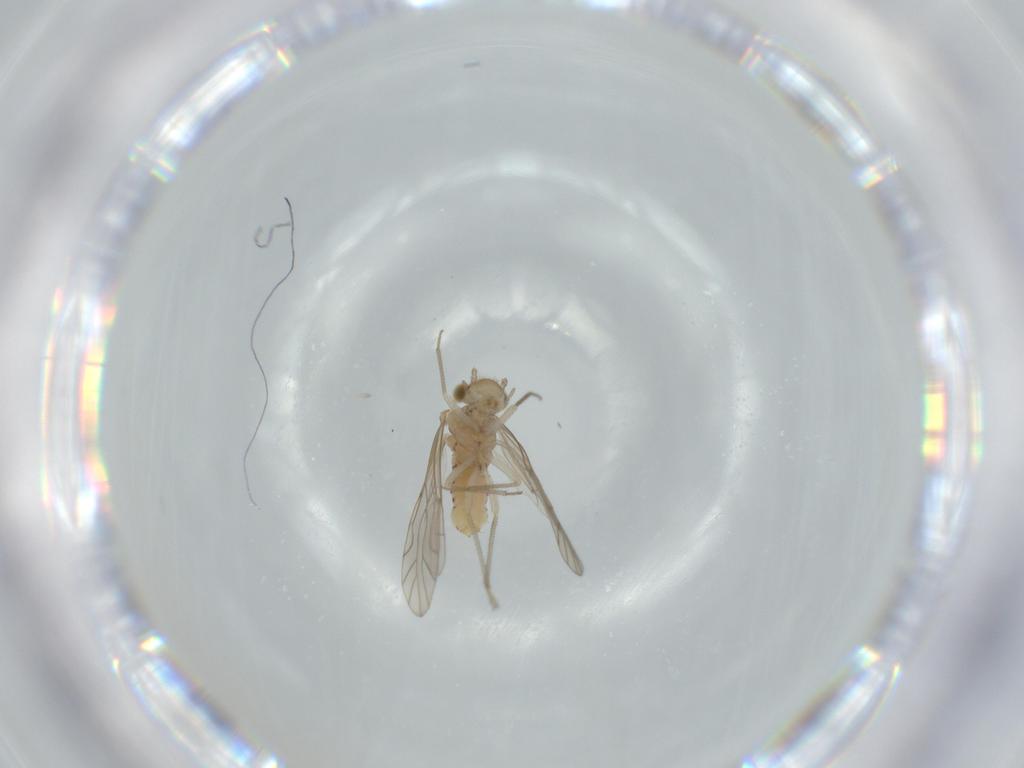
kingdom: Animalia
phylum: Arthropoda
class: Insecta
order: Psocodea
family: Lachesillidae
